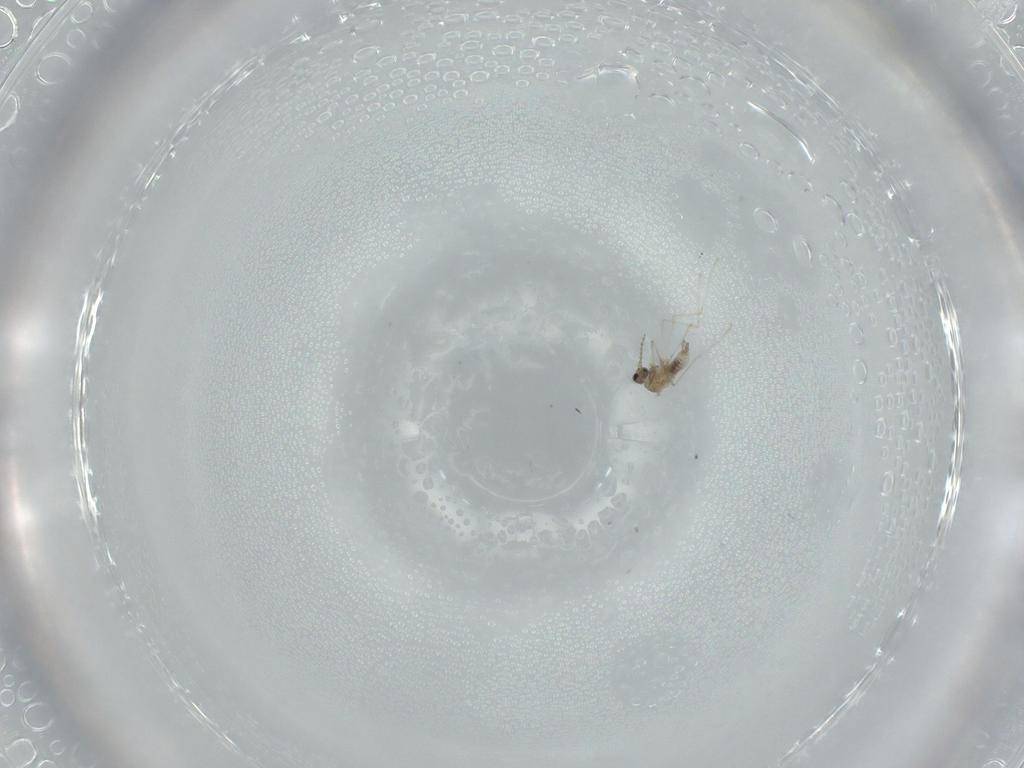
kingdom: Animalia
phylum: Arthropoda
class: Insecta
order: Diptera
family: Cecidomyiidae
